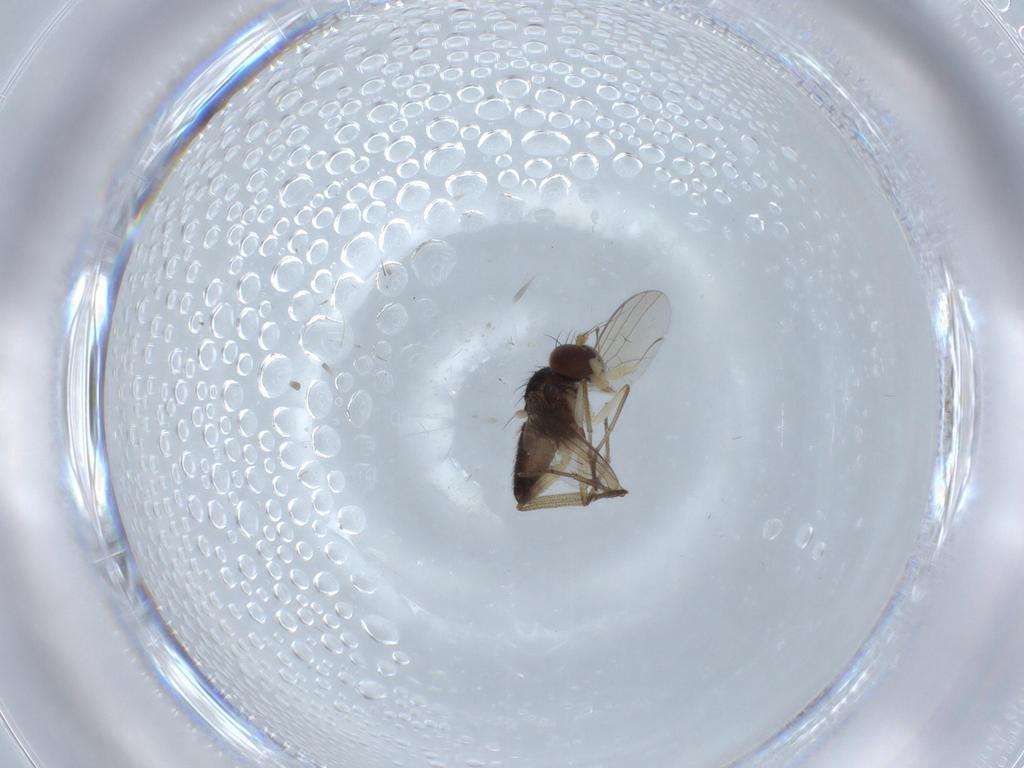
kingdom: Animalia
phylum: Arthropoda
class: Insecta
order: Diptera
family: Dolichopodidae
